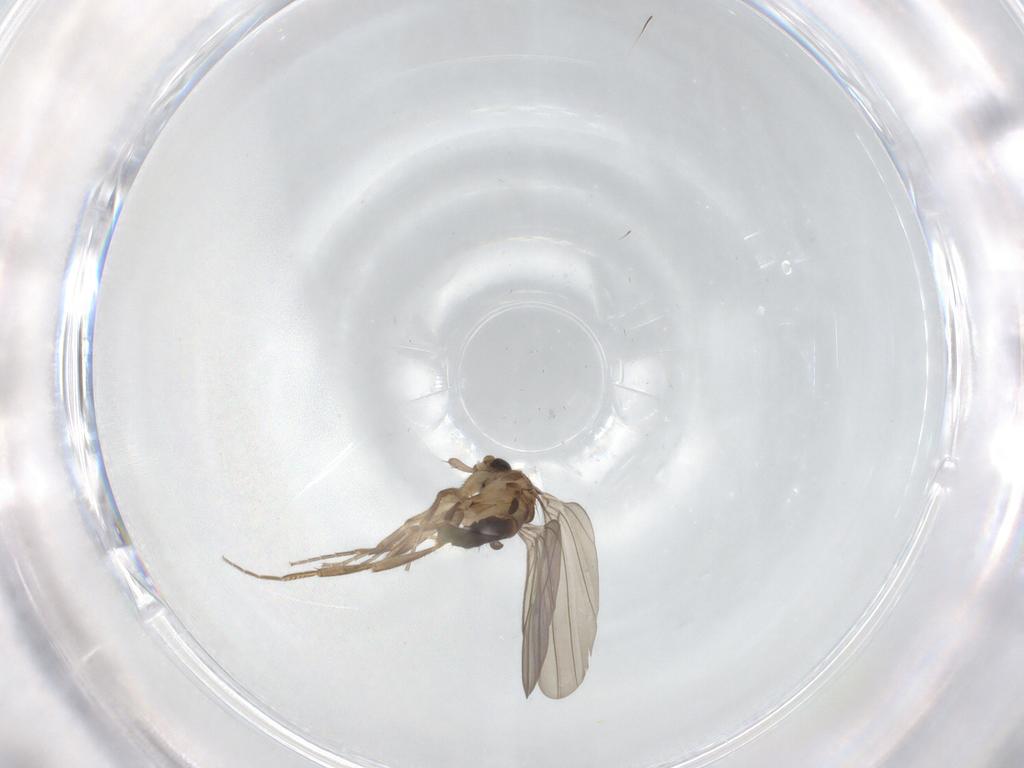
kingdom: Animalia
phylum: Arthropoda
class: Insecta
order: Diptera
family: Phoridae
